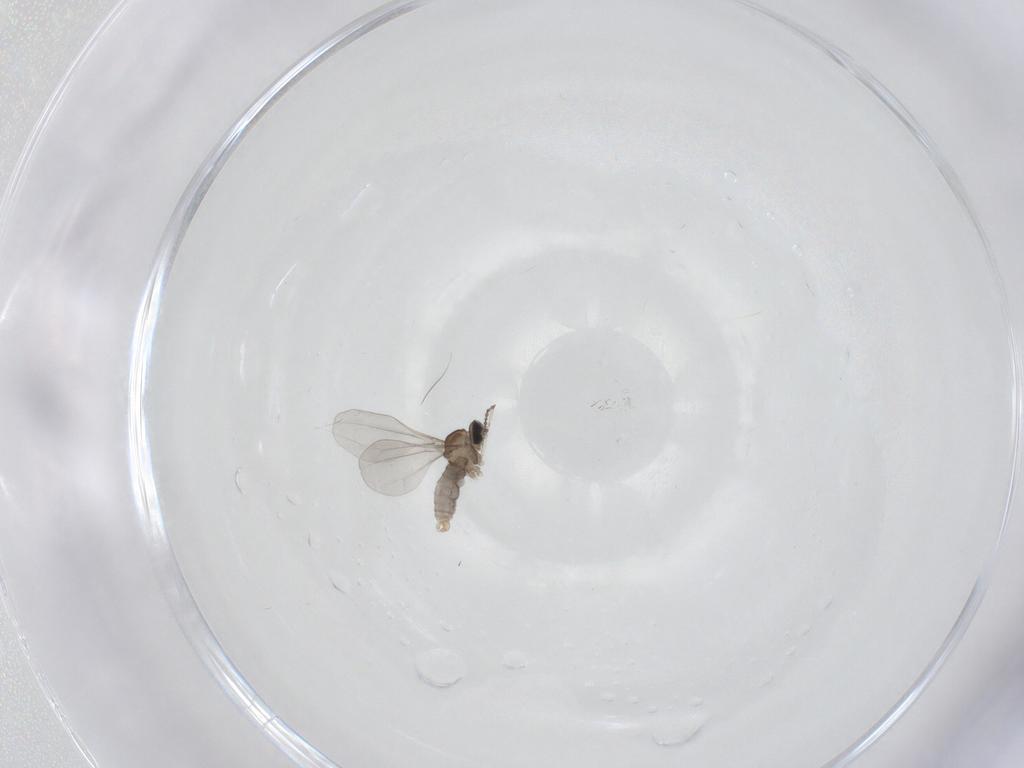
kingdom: Animalia
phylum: Arthropoda
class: Insecta
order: Diptera
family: Cecidomyiidae
